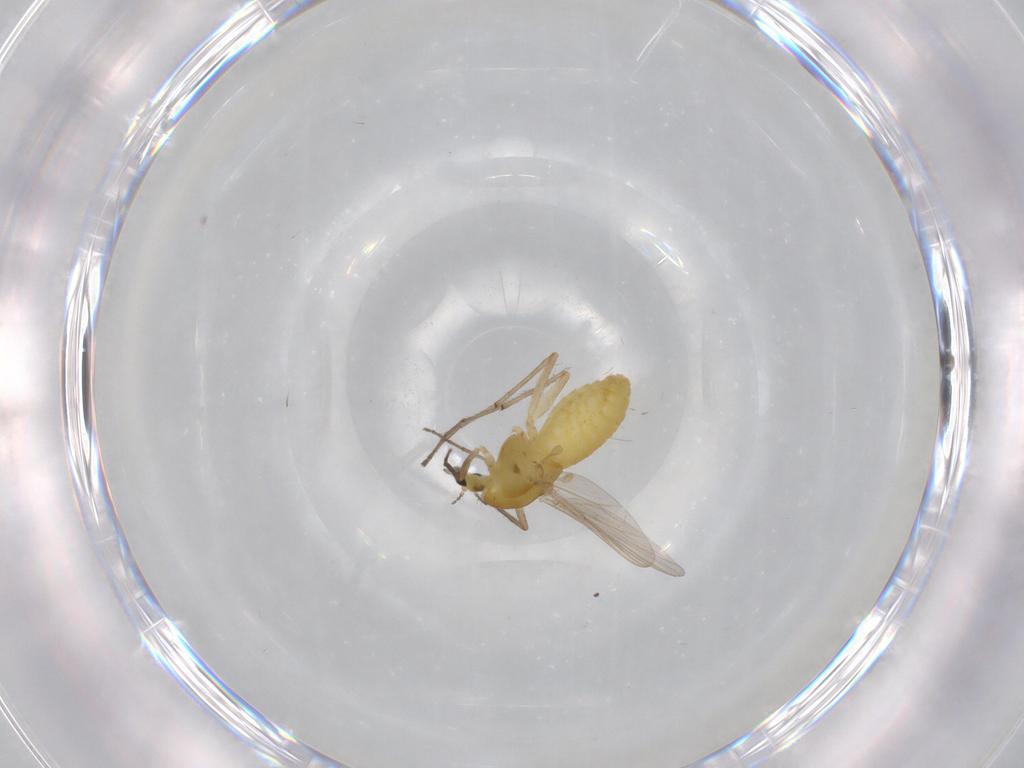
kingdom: Animalia
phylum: Arthropoda
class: Insecta
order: Diptera
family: Chironomidae
